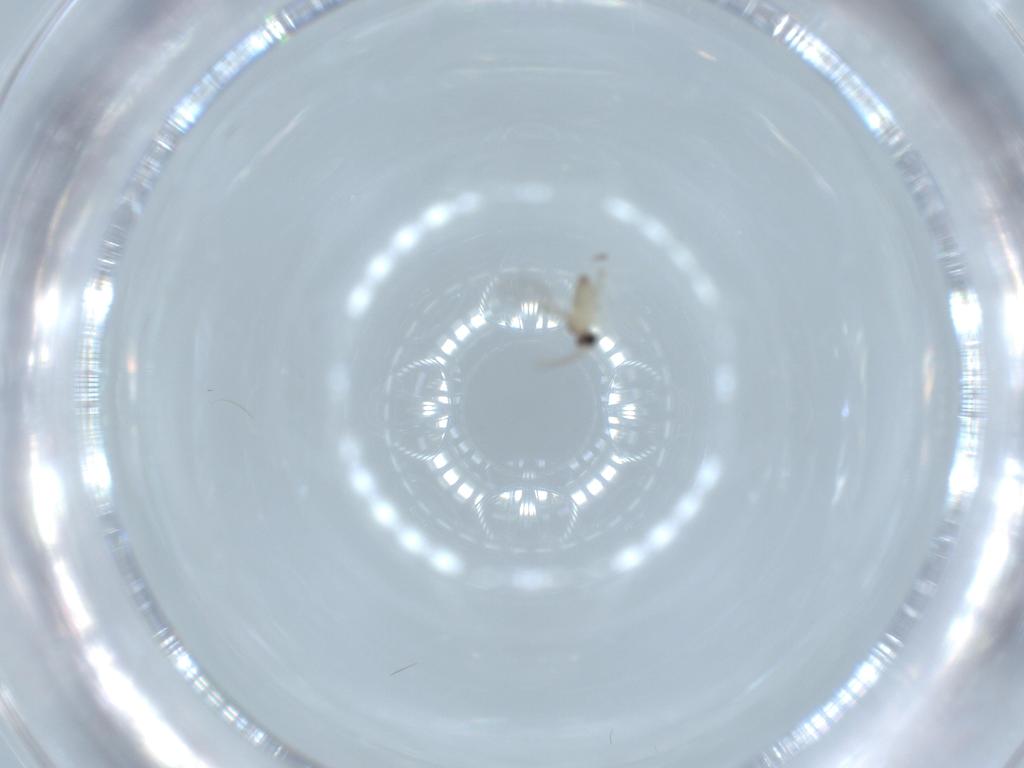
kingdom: Animalia
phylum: Arthropoda
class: Insecta
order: Diptera
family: Cecidomyiidae
